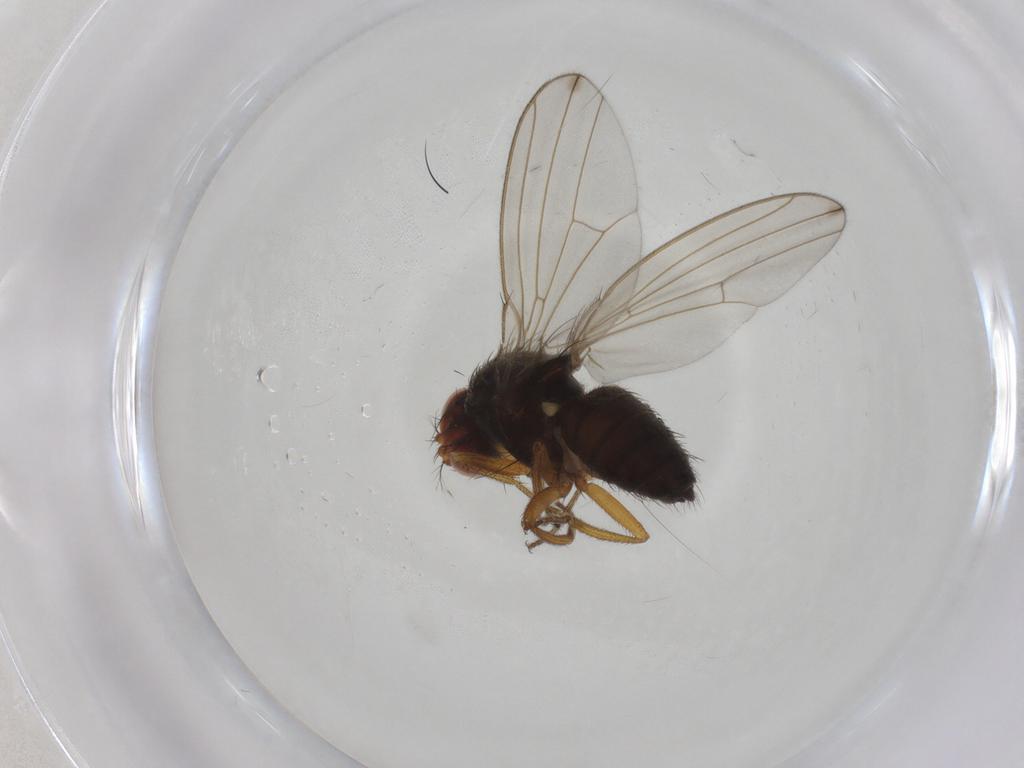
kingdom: Animalia
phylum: Arthropoda
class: Insecta
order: Diptera
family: Drosophilidae
